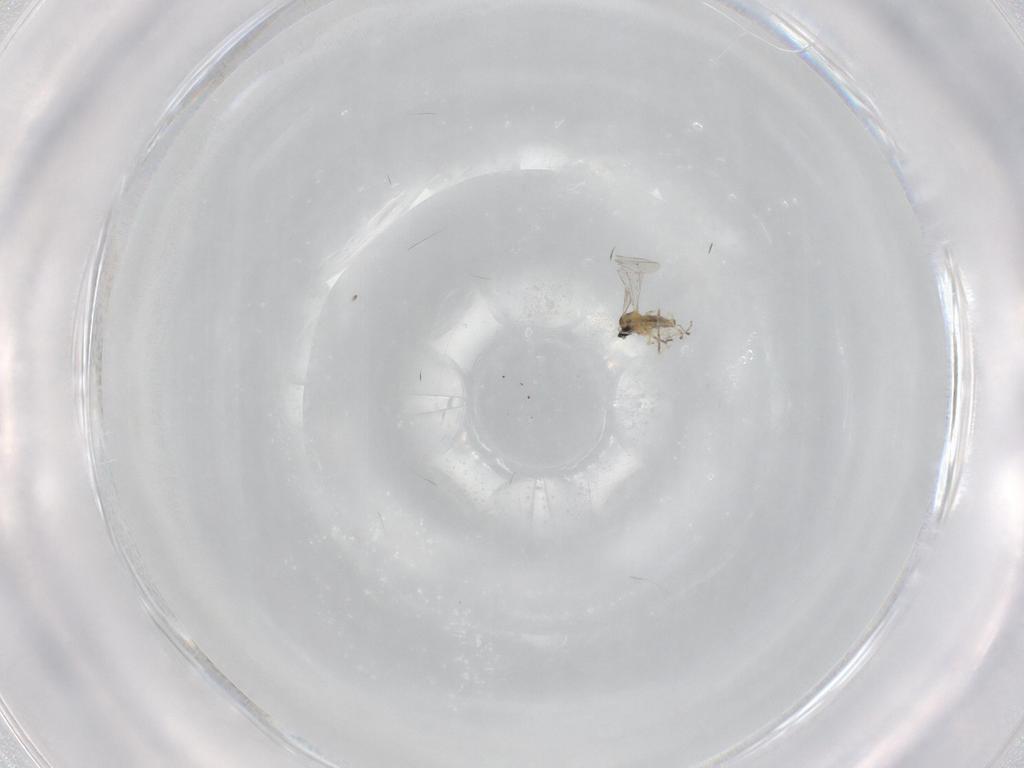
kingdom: Animalia
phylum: Arthropoda
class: Insecta
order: Diptera
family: Cecidomyiidae
